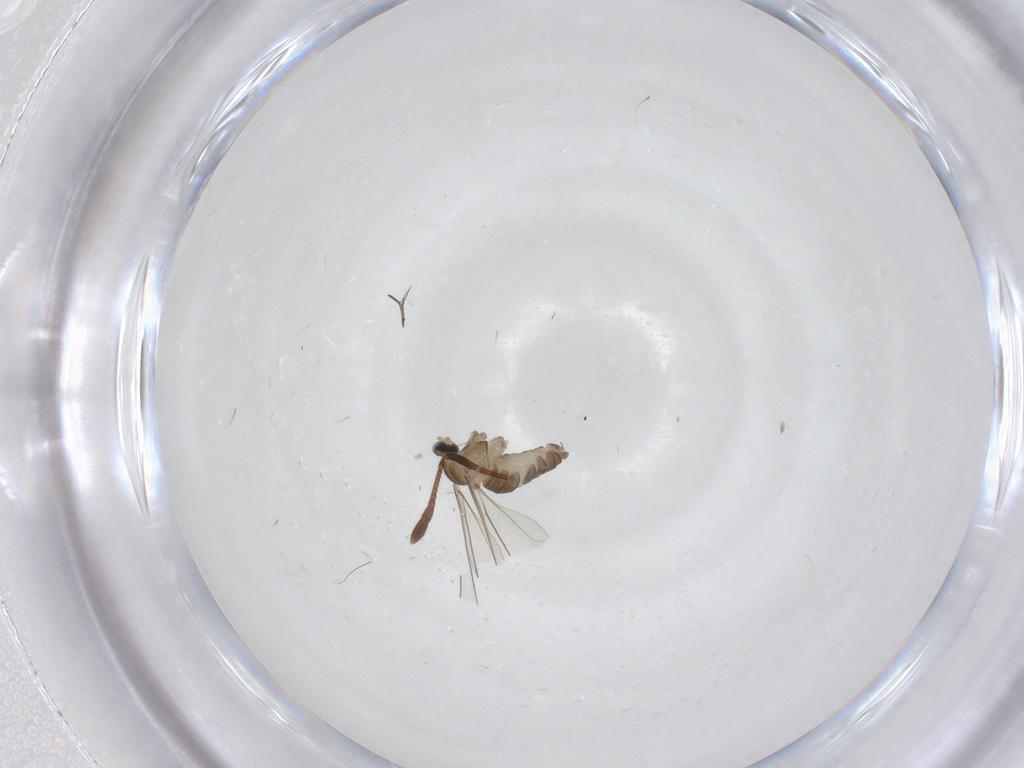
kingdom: Animalia
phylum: Arthropoda
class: Insecta
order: Diptera
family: Cecidomyiidae
